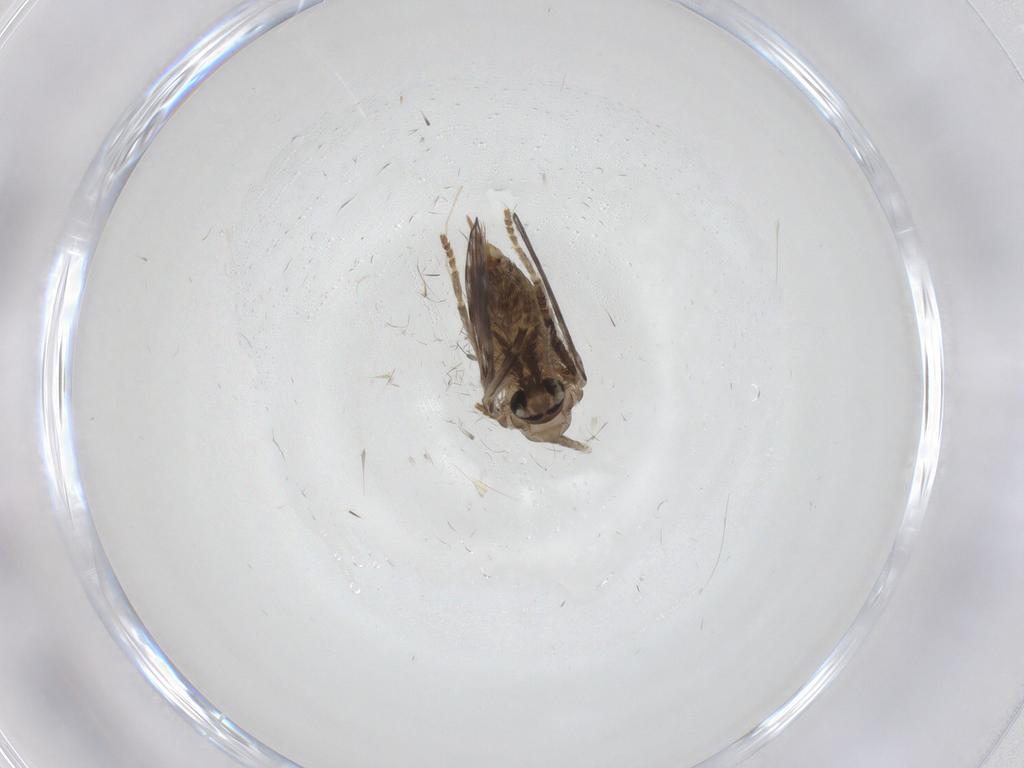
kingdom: Animalia
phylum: Arthropoda
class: Insecta
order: Diptera
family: Psychodidae
